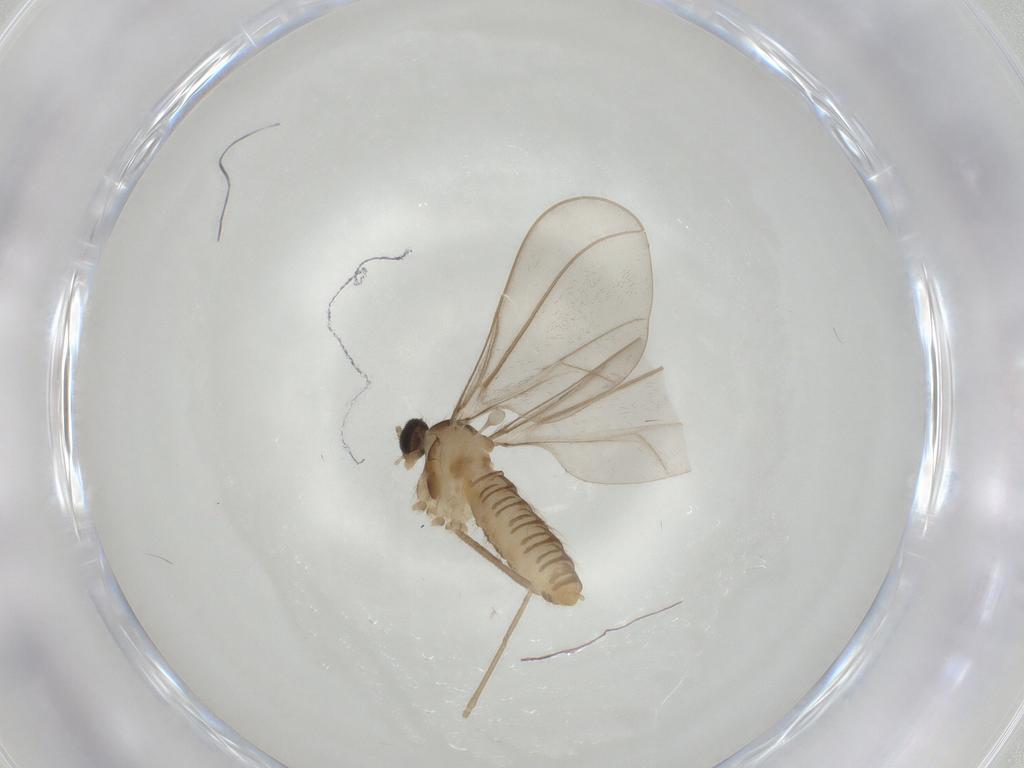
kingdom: Animalia
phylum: Arthropoda
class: Insecta
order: Diptera
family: Cecidomyiidae
